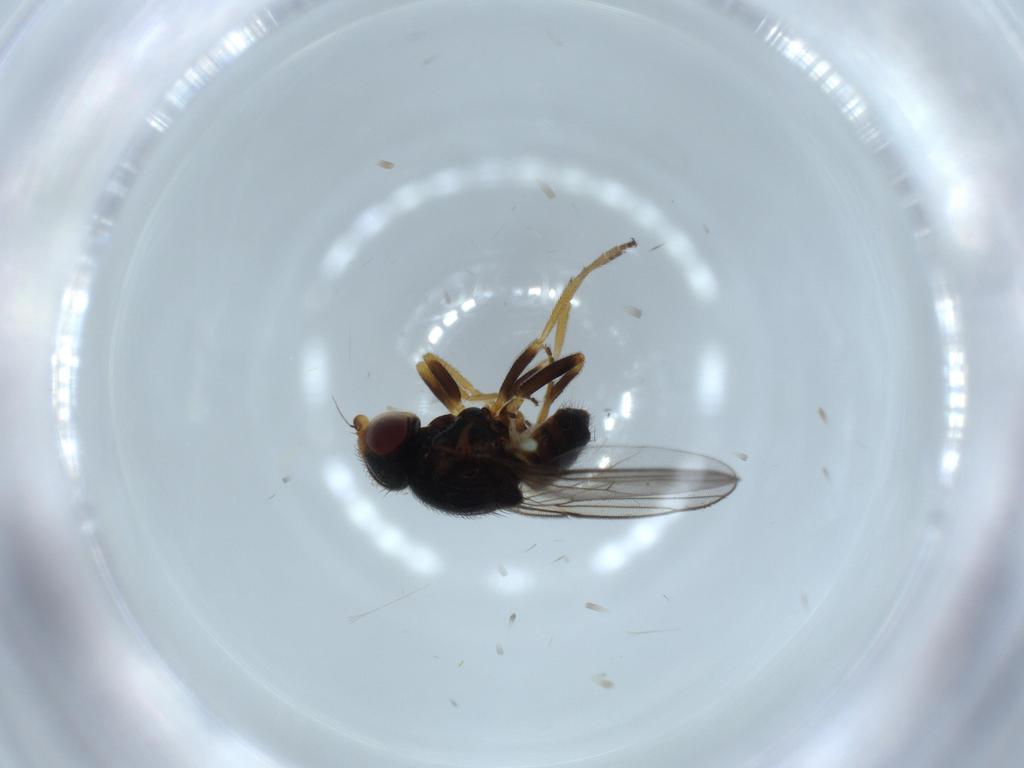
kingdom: Animalia
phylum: Arthropoda
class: Insecta
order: Diptera
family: Chloropidae
